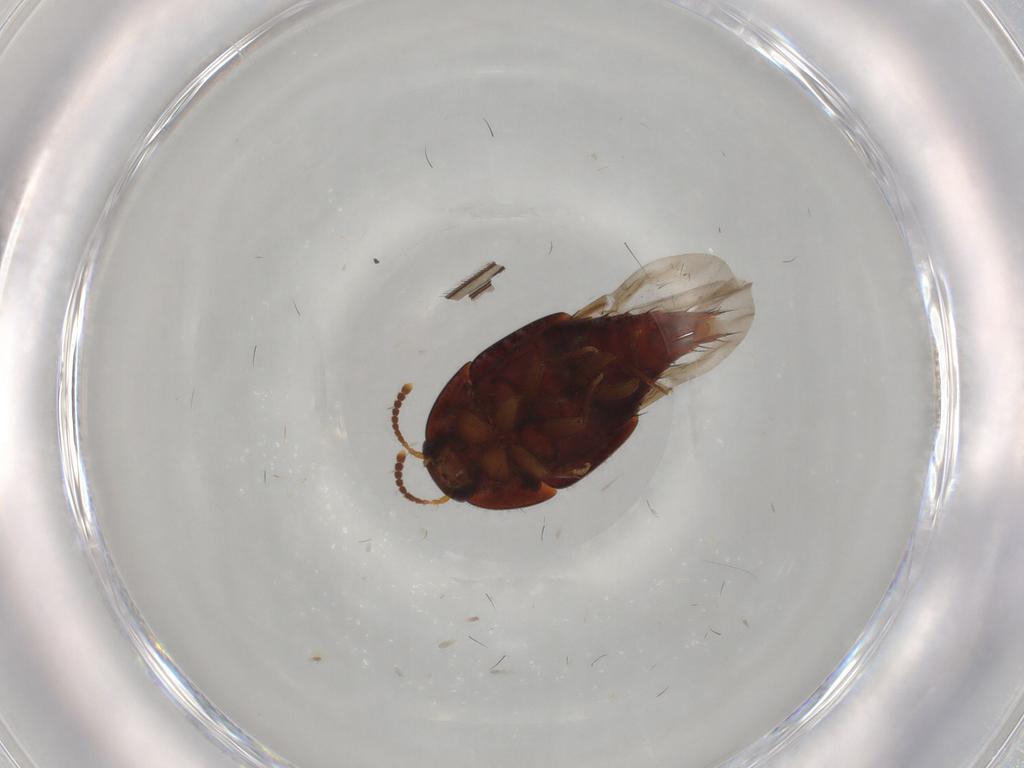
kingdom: Animalia
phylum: Arthropoda
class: Insecta
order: Coleoptera
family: Staphylinidae
